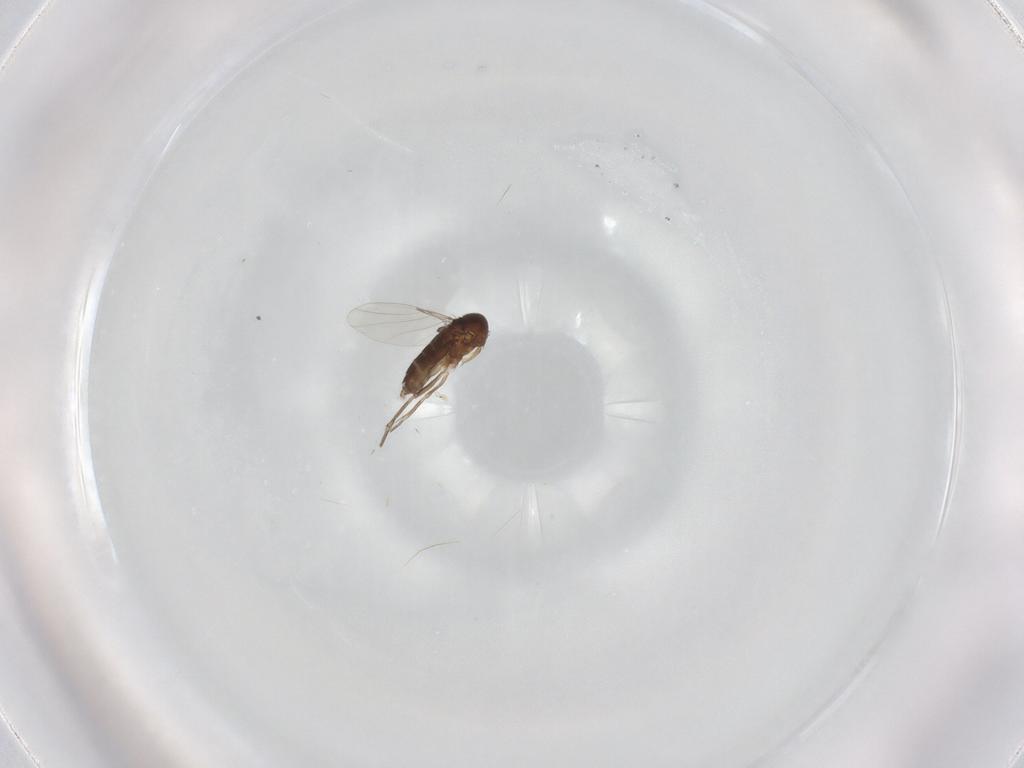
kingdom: Animalia
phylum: Arthropoda
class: Insecta
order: Diptera
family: Phoridae
